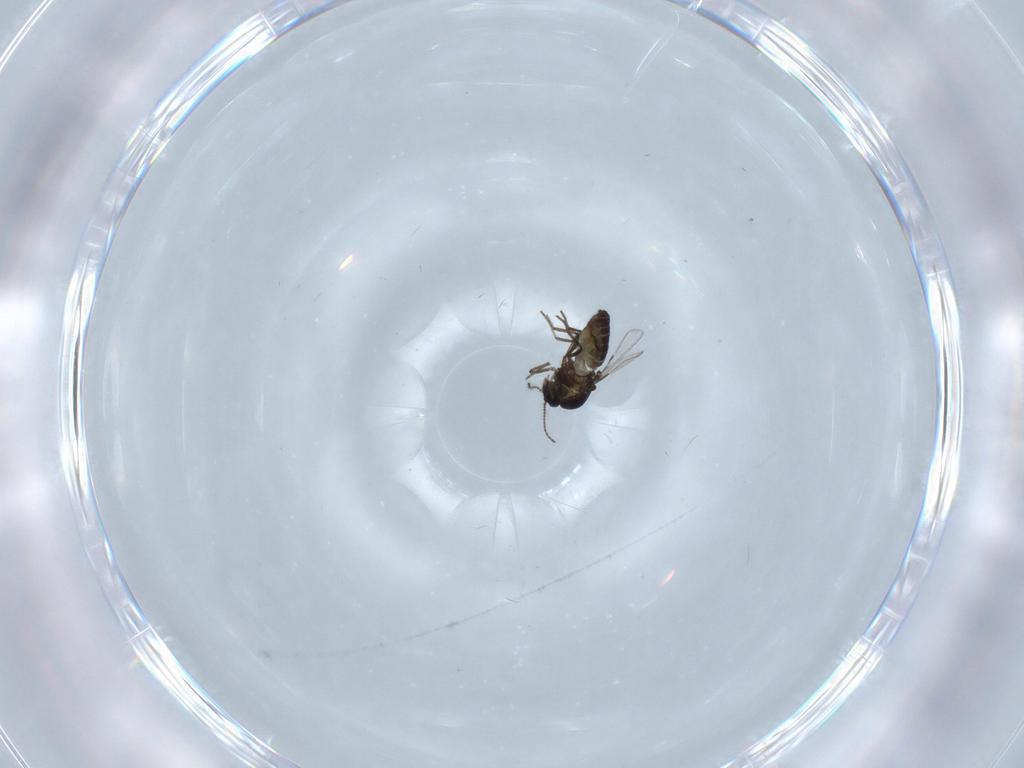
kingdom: Animalia
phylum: Arthropoda
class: Insecta
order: Diptera
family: Ceratopogonidae
